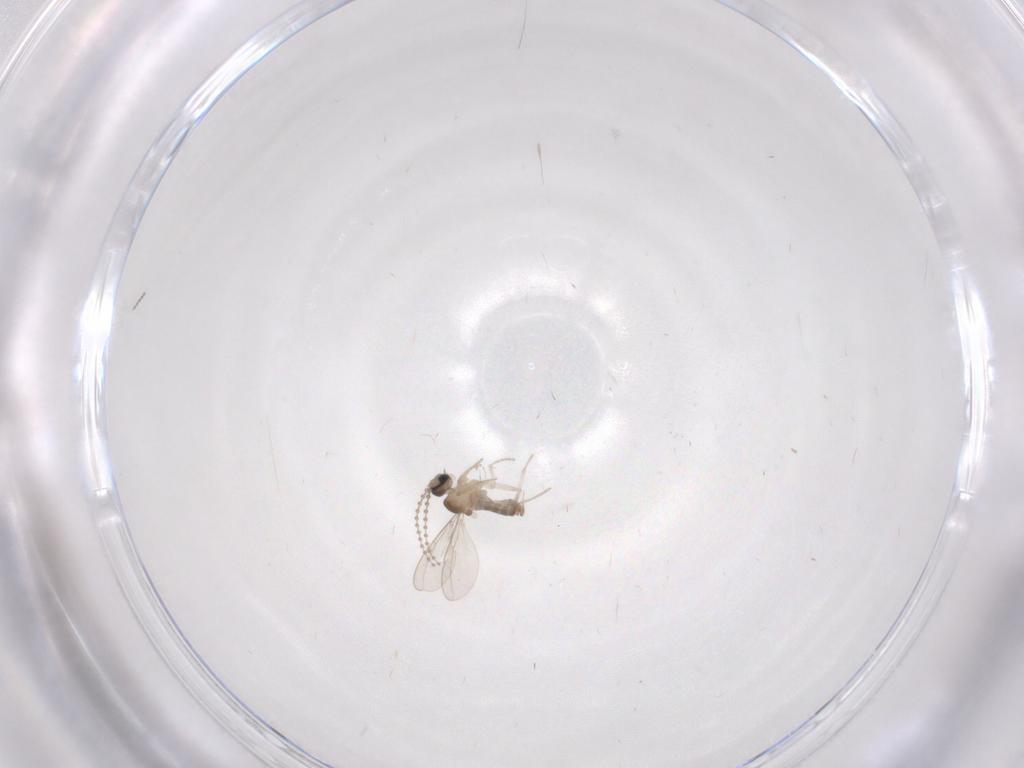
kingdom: Animalia
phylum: Arthropoda
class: Insecta
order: Diptera
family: Cecidomyiidae
